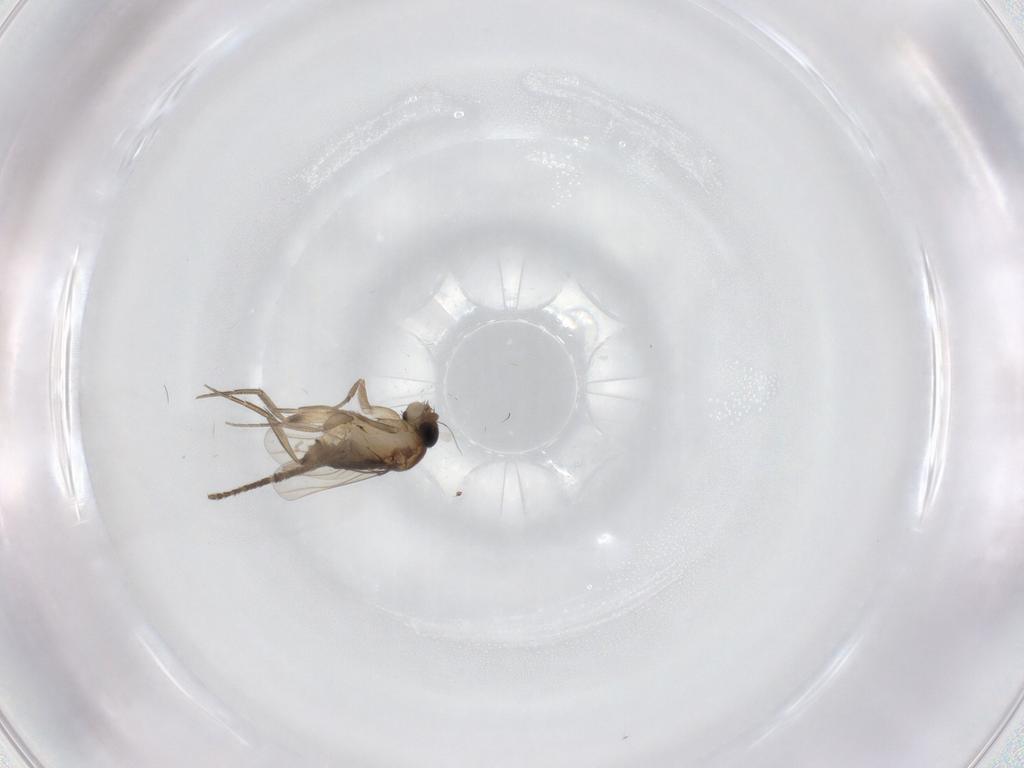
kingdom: Animalia
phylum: Arthropoda
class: Insecta
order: Diptera
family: Psychodidae
